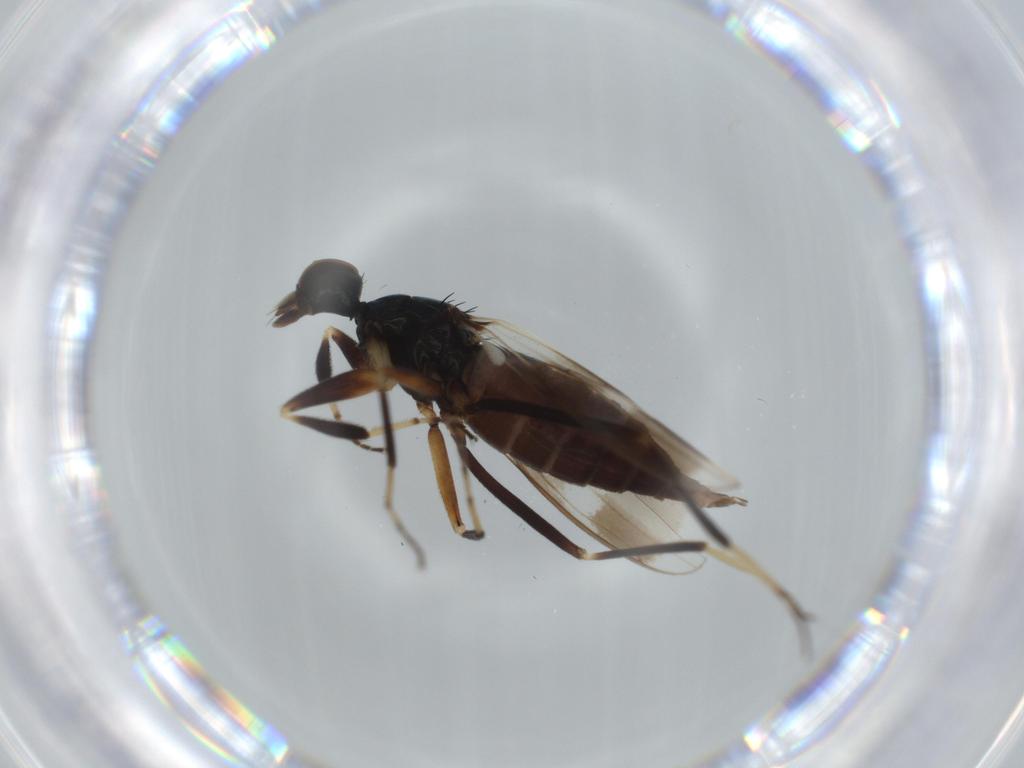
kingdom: Animalia
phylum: Arthropoda
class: Insecta
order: Diptera
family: Hybotidae
